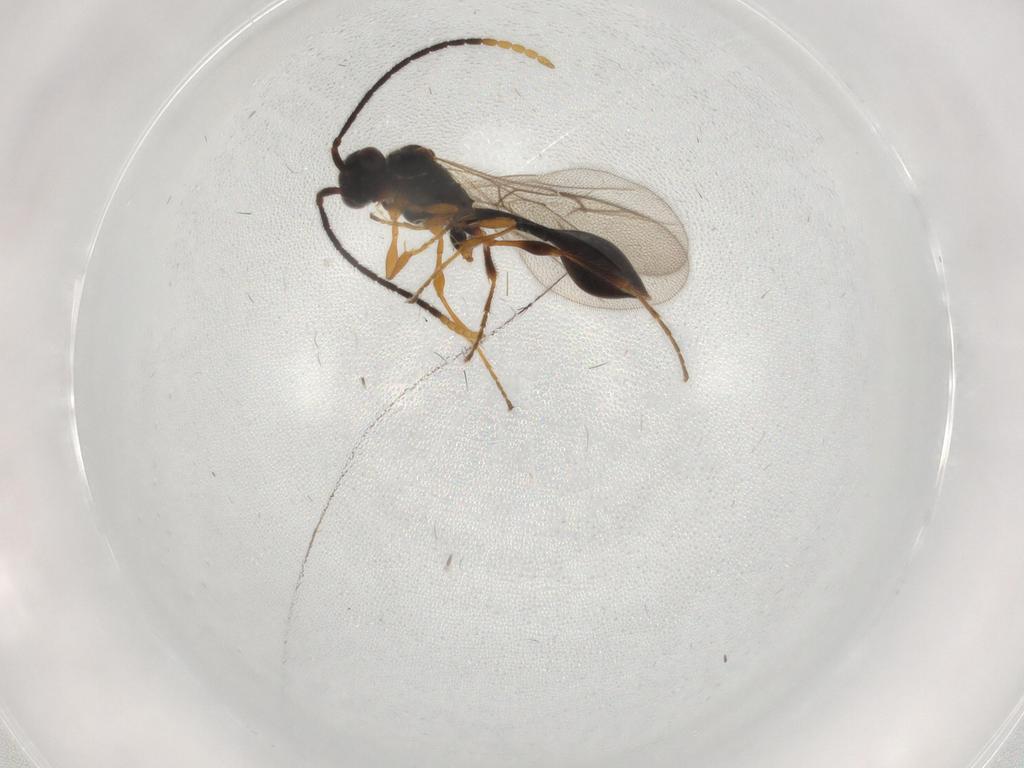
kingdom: Animalia
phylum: Arthropoda
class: Insecta
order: Hymenoptera
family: Diapriidae
